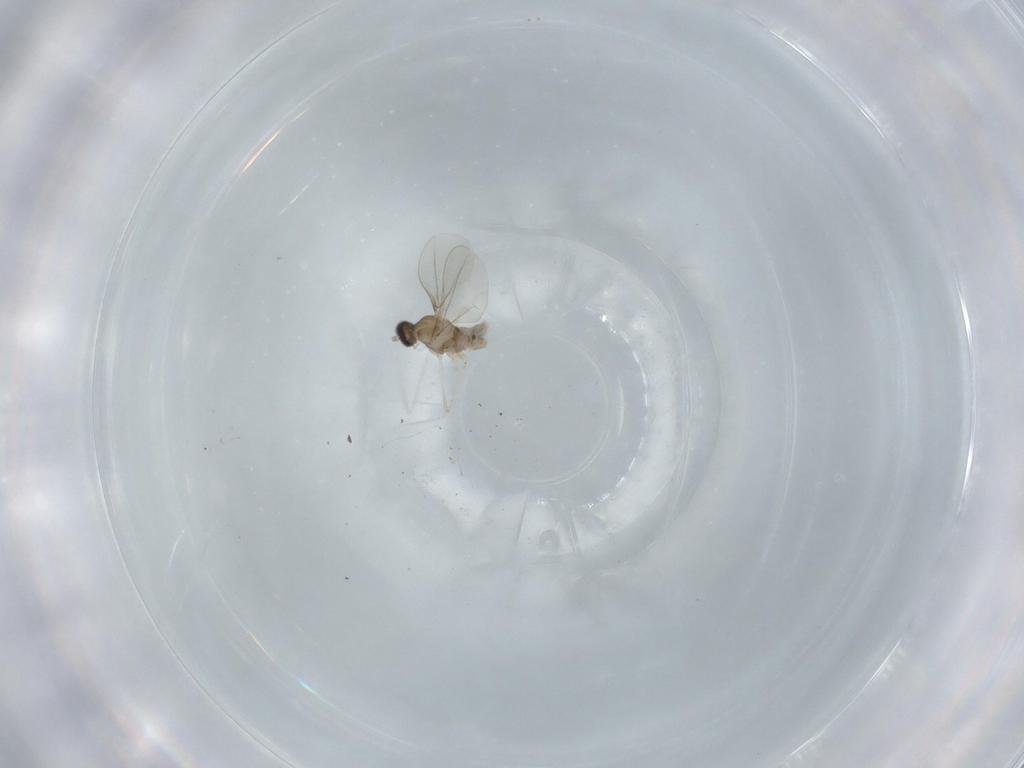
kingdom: Animalia
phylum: Arthropoda
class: Insecta
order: Diptera
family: Cecidomyiidae
